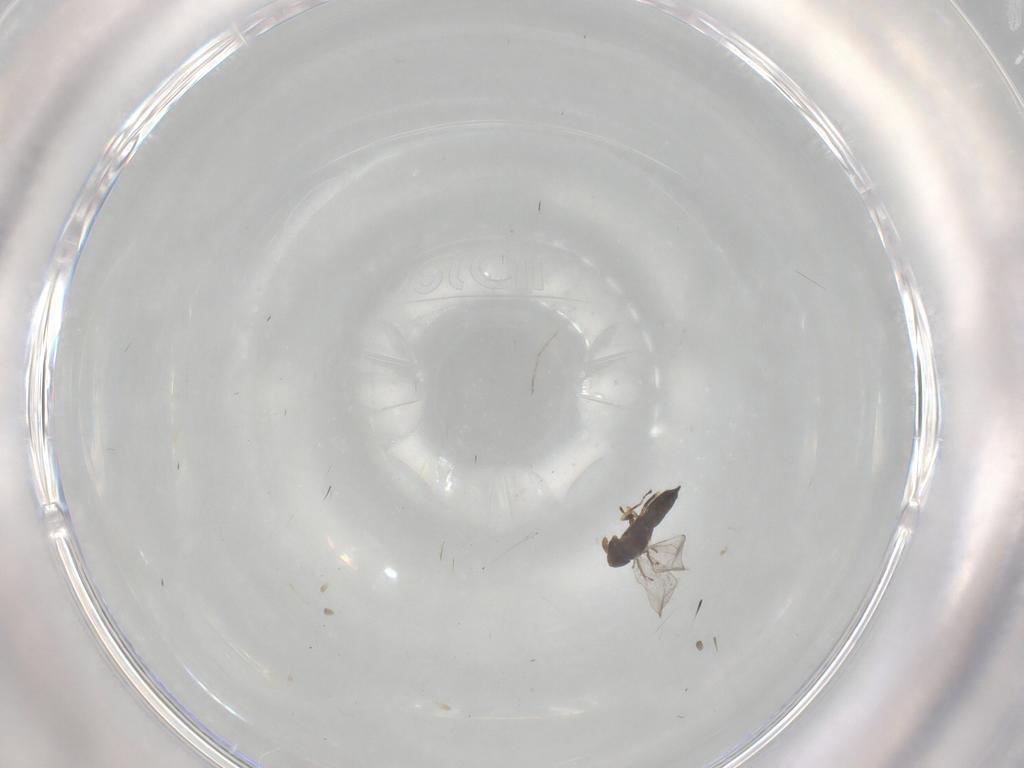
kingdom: Animalia
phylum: Arthropoda
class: Insecta
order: Hymenoptera
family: Eulophidae
